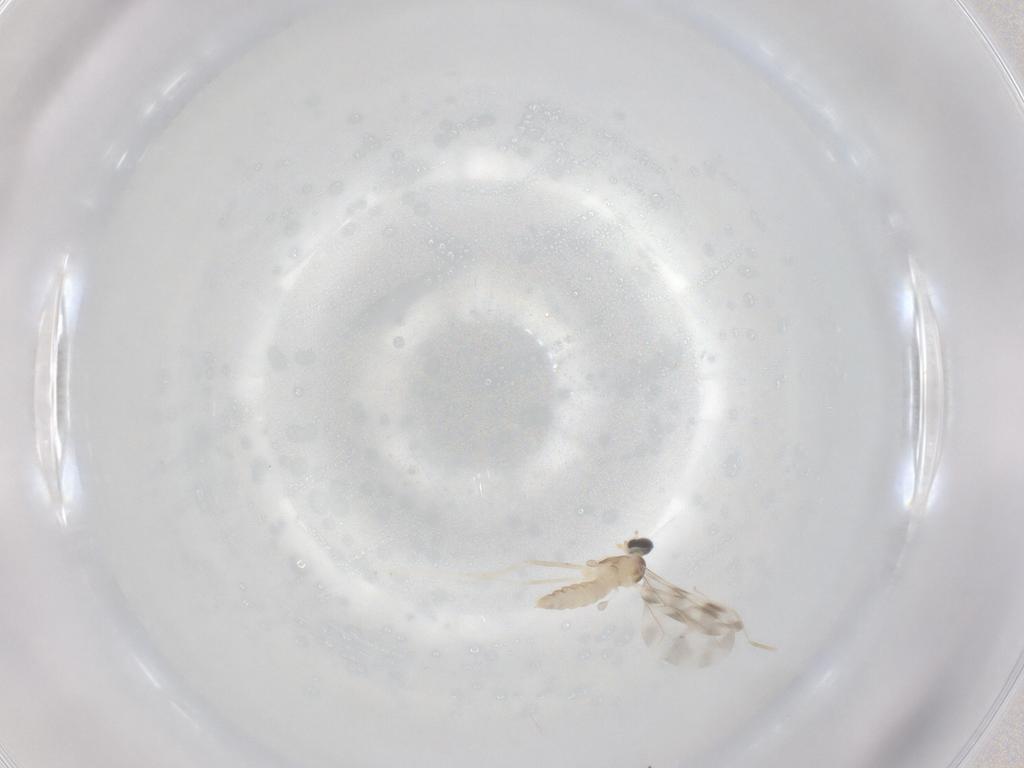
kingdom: Animalia
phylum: Arthropoda
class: Insecta
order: Diptera
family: Cecidomyiidae
